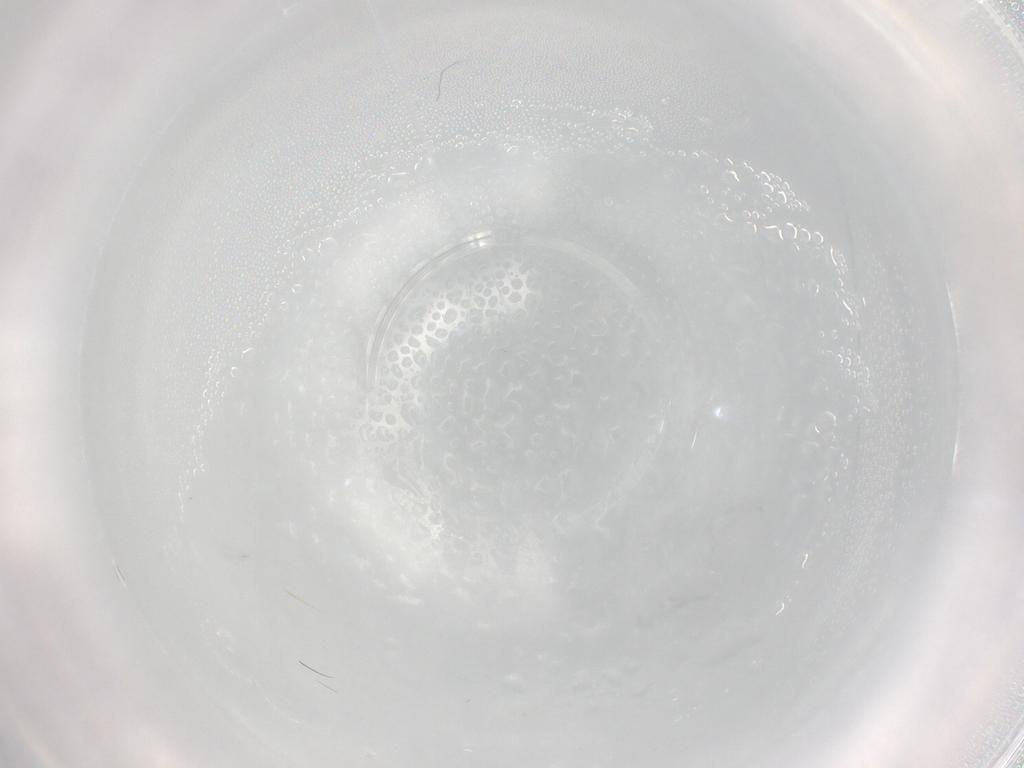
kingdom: Animalia
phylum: Arthropoda
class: Insecta
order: Diptera
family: Cecidomyiidae
